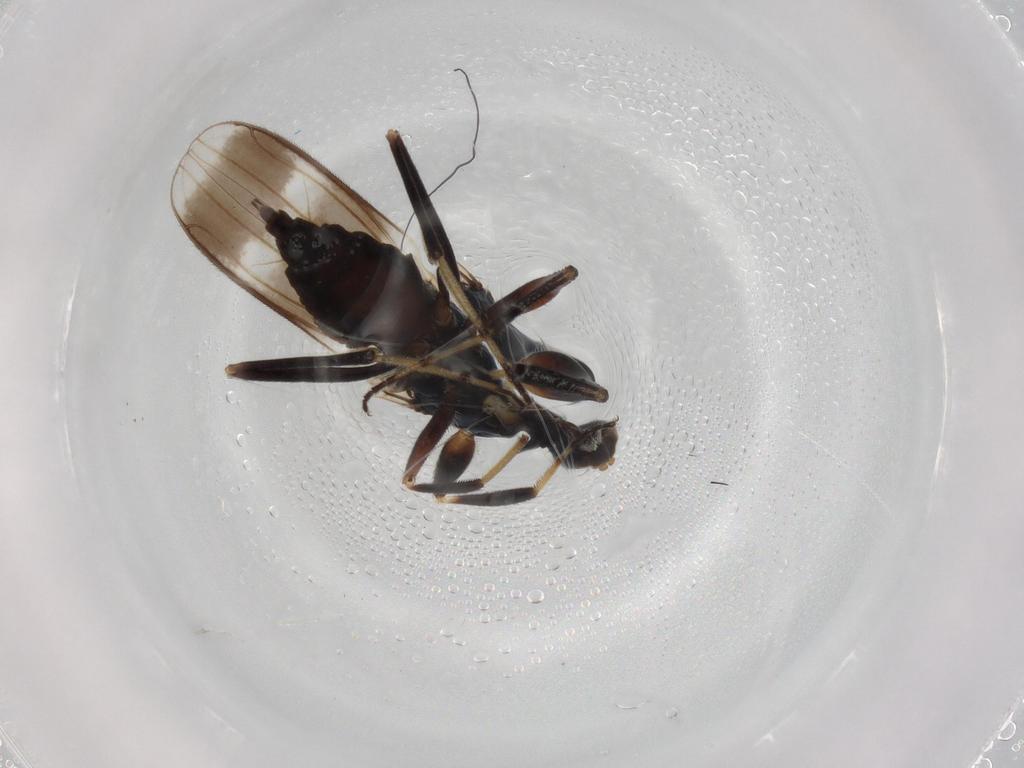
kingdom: Animalia
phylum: Arthropoda
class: Insecta
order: Diptera
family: Hybotidae
